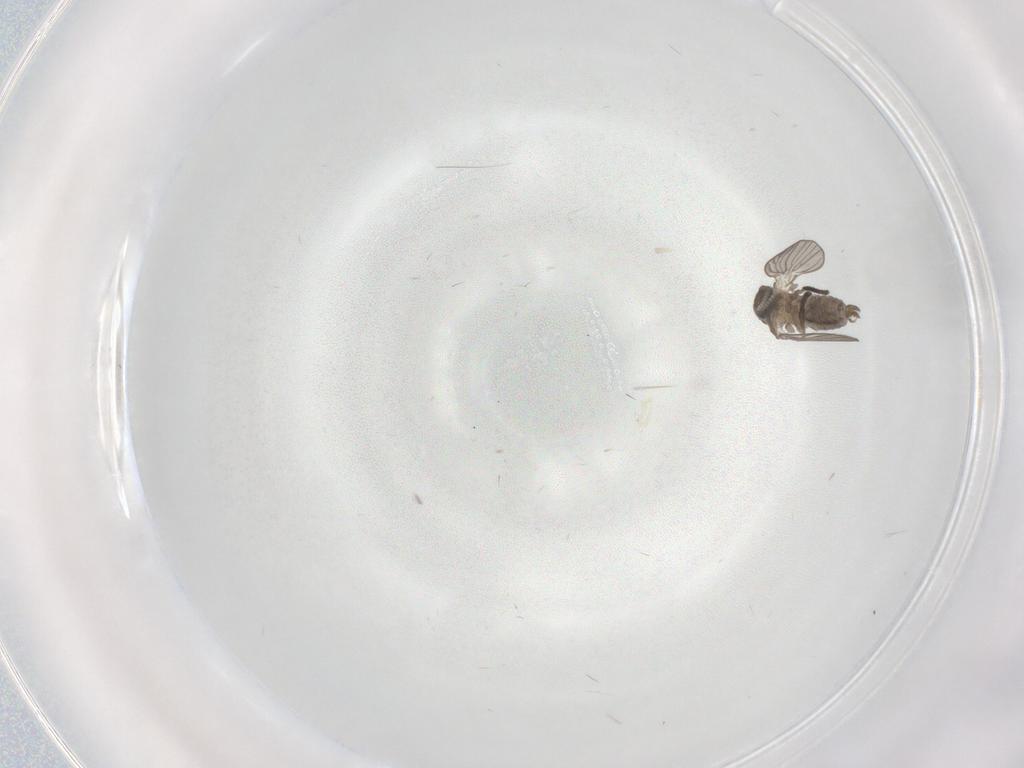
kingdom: Animalia
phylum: Arthropoda
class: Insecta
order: Diptera
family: Psychodidae
